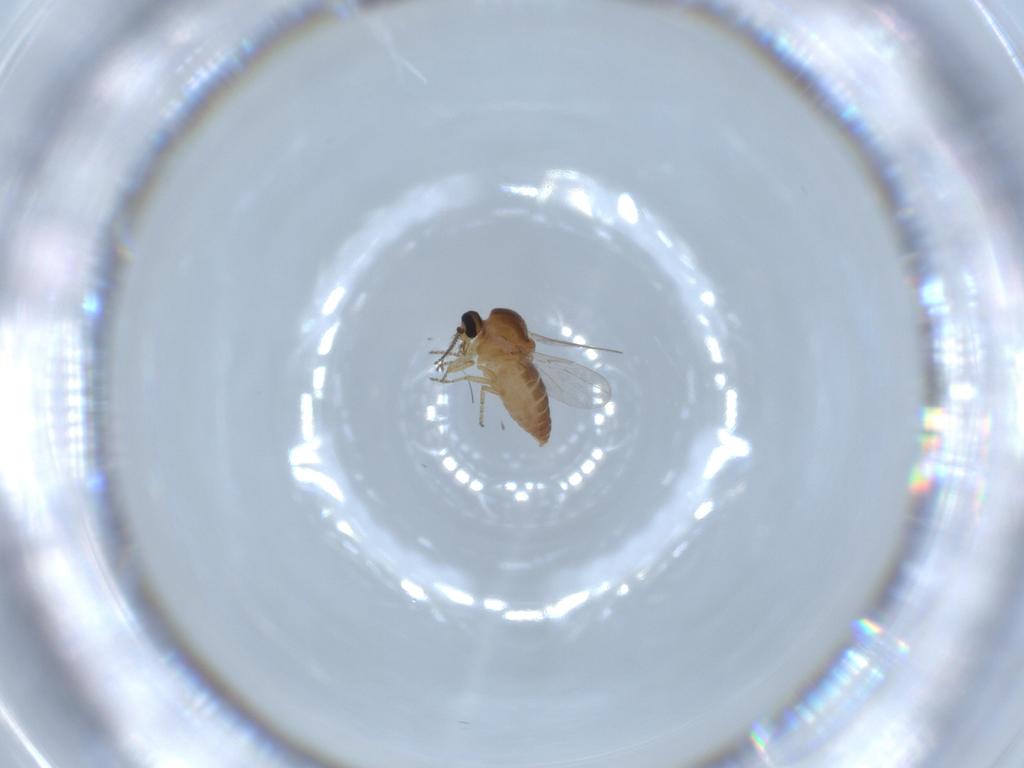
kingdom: Animalia
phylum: Arthropoda
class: Insecta
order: Diptera
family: Ceratopogonidae
